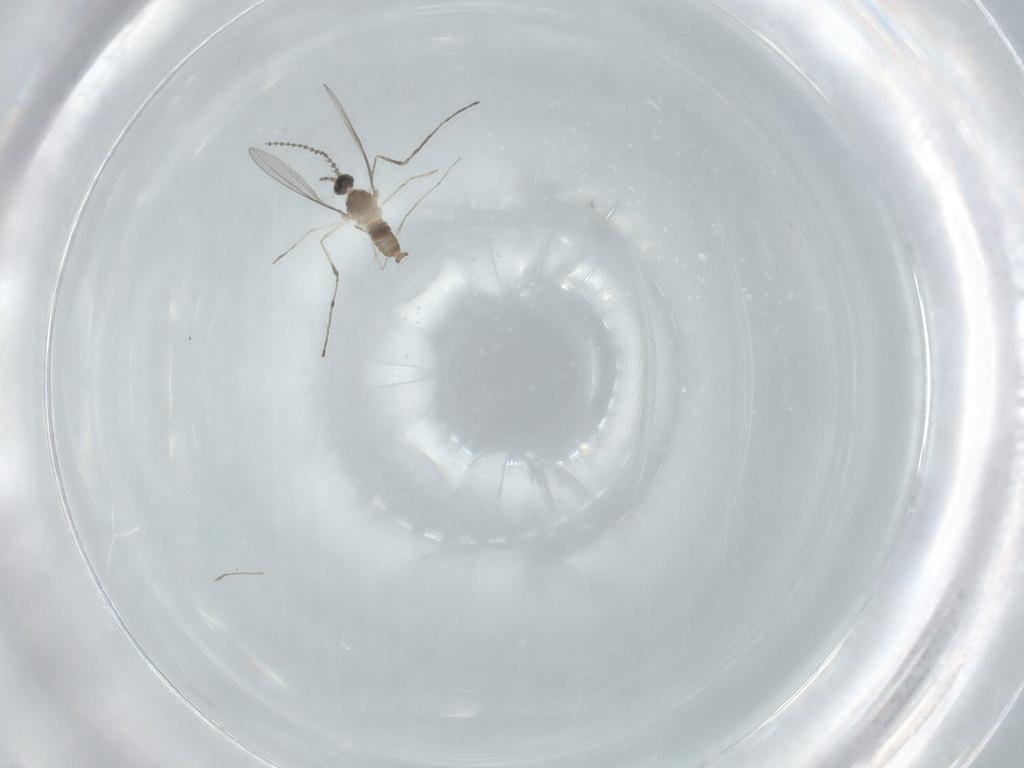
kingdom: Animalia
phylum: Arthropoda
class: Insecta
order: Diptera
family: Cecidomyiidae
